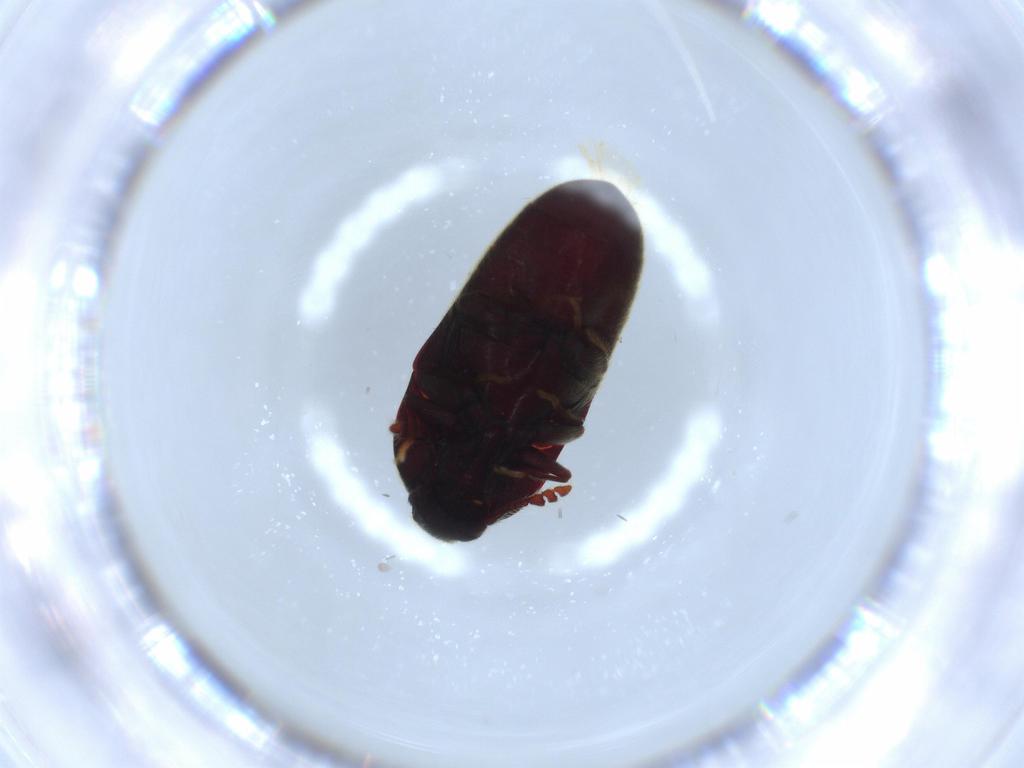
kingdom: Animalia
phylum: Arthropoda
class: Insecta
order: Coleoptera
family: Throscidae
